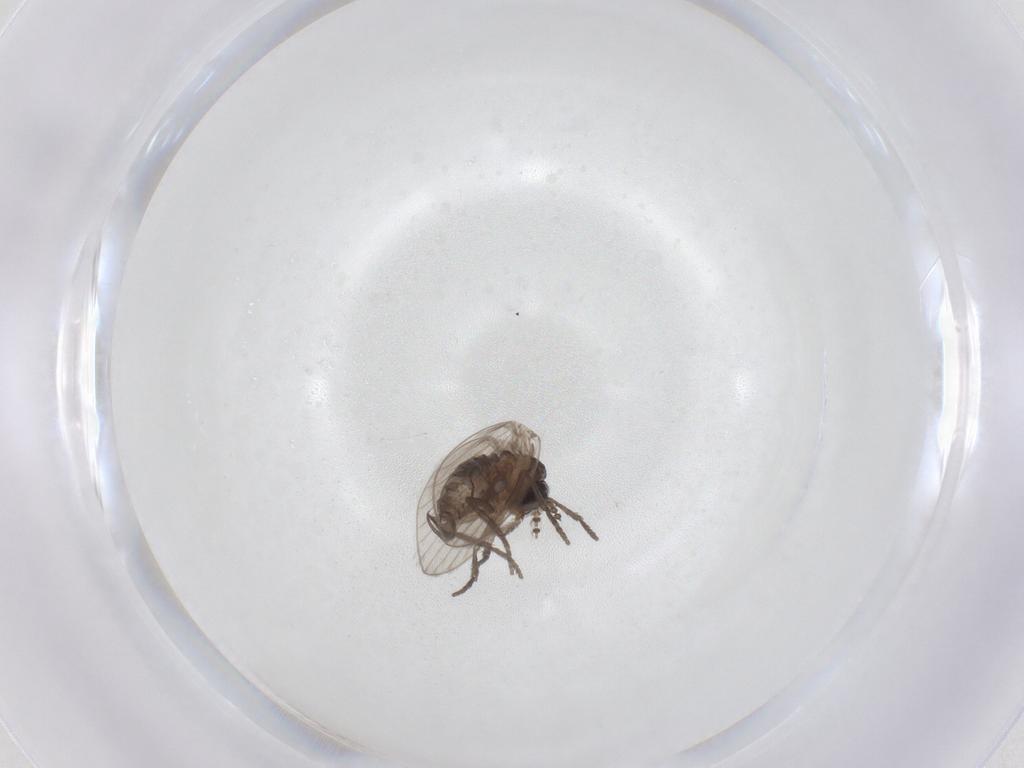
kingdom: Animalia
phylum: Arthropoda
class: Insecta
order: Diptera
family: Psychodidae
